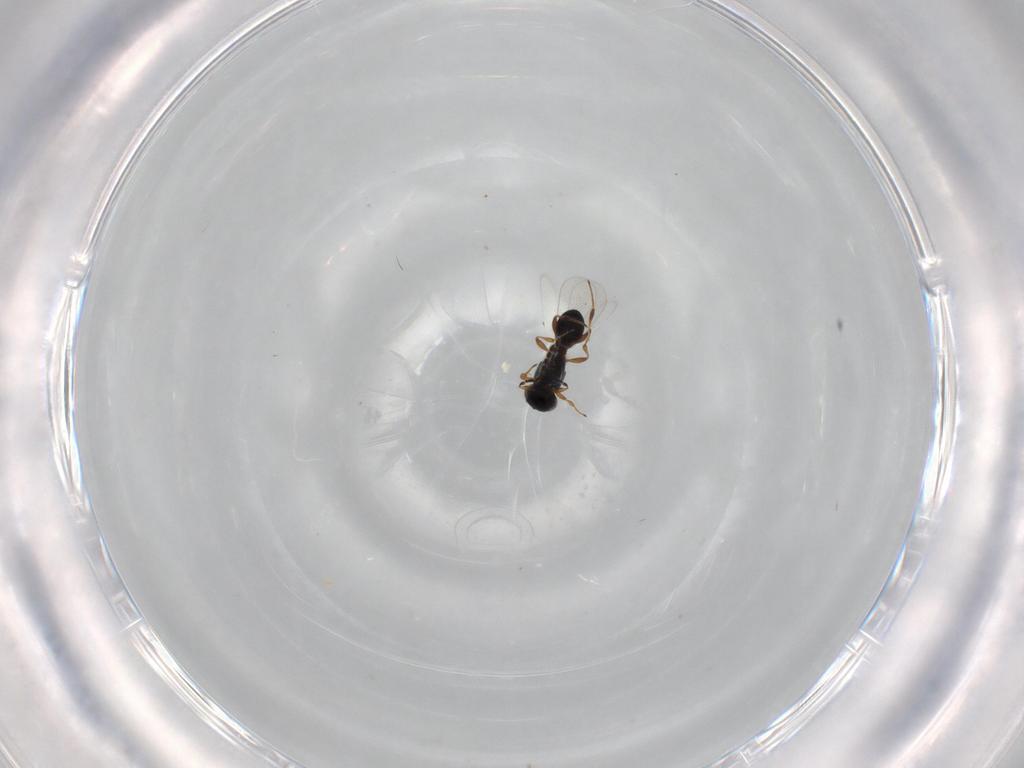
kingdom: Animalia
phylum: Arthropoda
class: Insecta
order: Hymenoptera
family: Platygastridae
